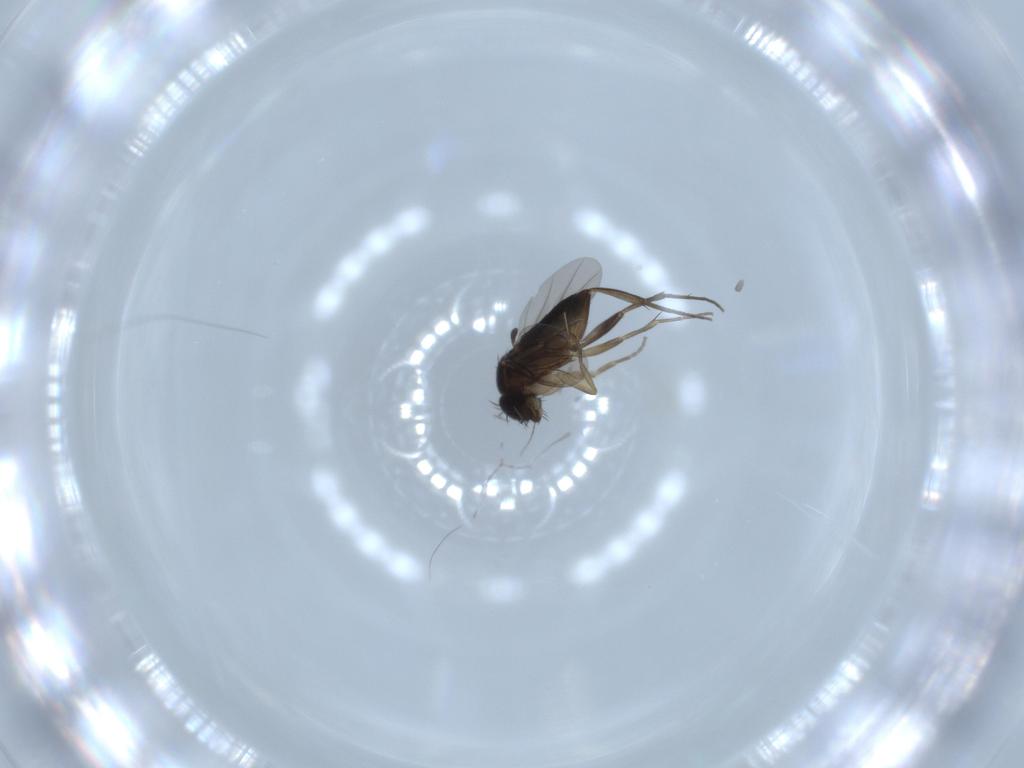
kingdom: Animalia
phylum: Arthropoda
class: Insecta
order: Diptera
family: Phoridae
